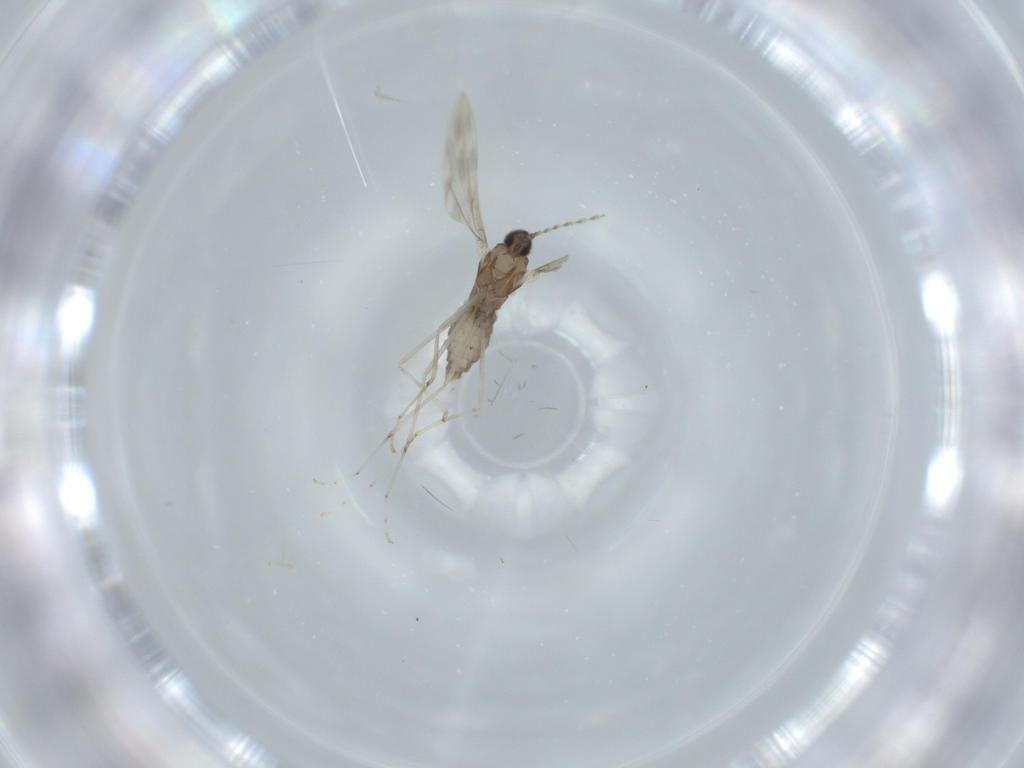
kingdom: Animalia
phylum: Arthropoda
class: Insecta
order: Diptera
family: Cecidomyiidae
